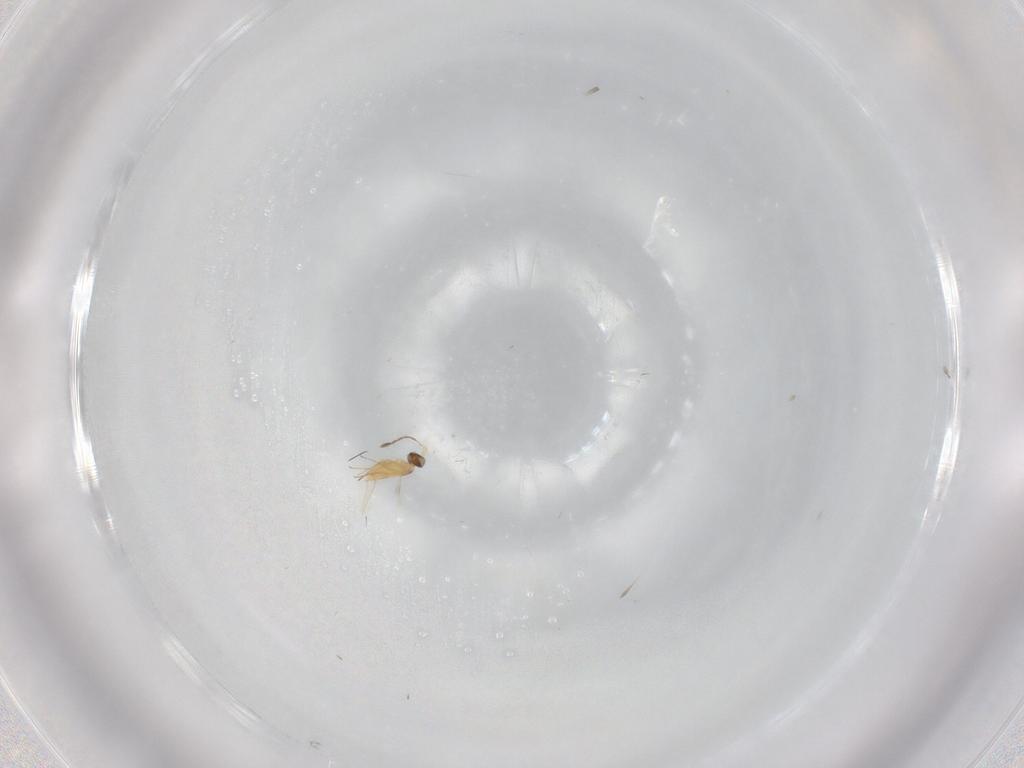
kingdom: Animalia
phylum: Arthropoda
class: Insecta
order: Hymenoptera
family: Mymaridae
